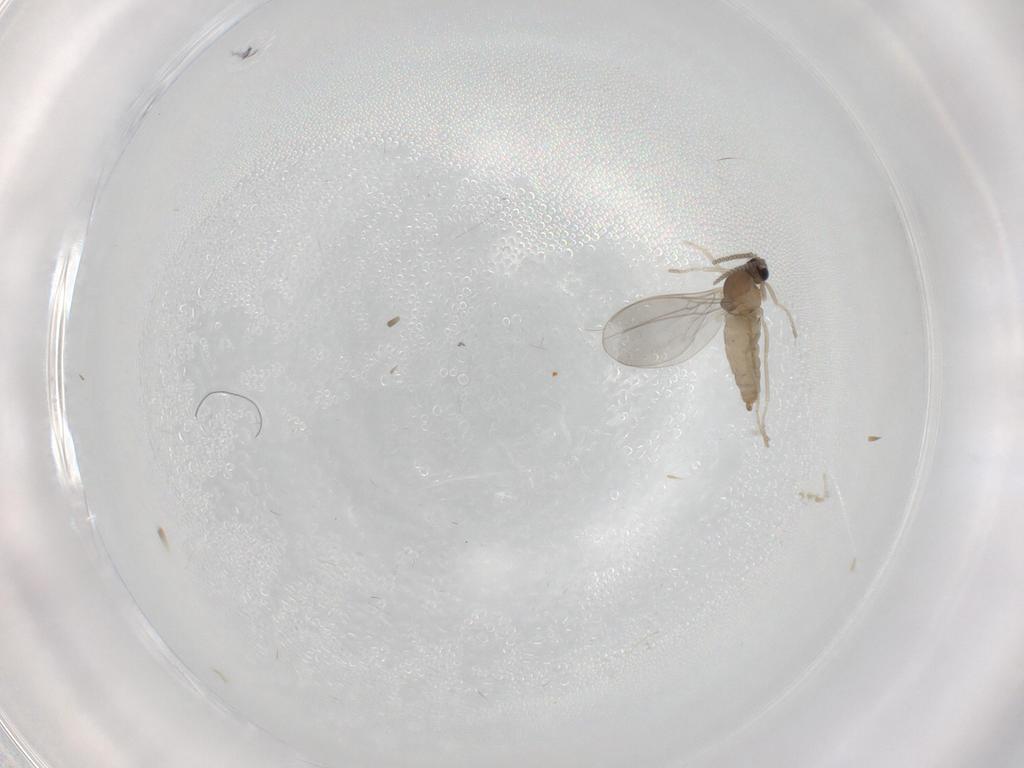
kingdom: Animalia
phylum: Arthropoda
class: Insecta
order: Diptera
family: Cecidomyiidae
